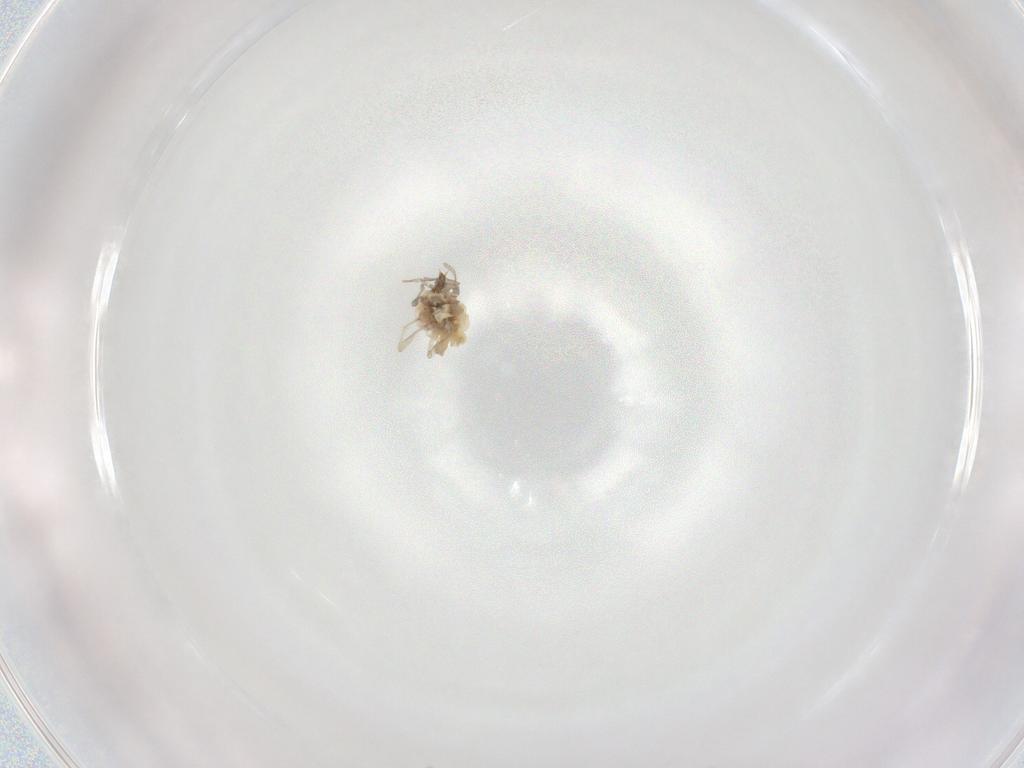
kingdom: Animalia
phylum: Arthropoda
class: Insecta
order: Neuroptera
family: Coniopterygidae
